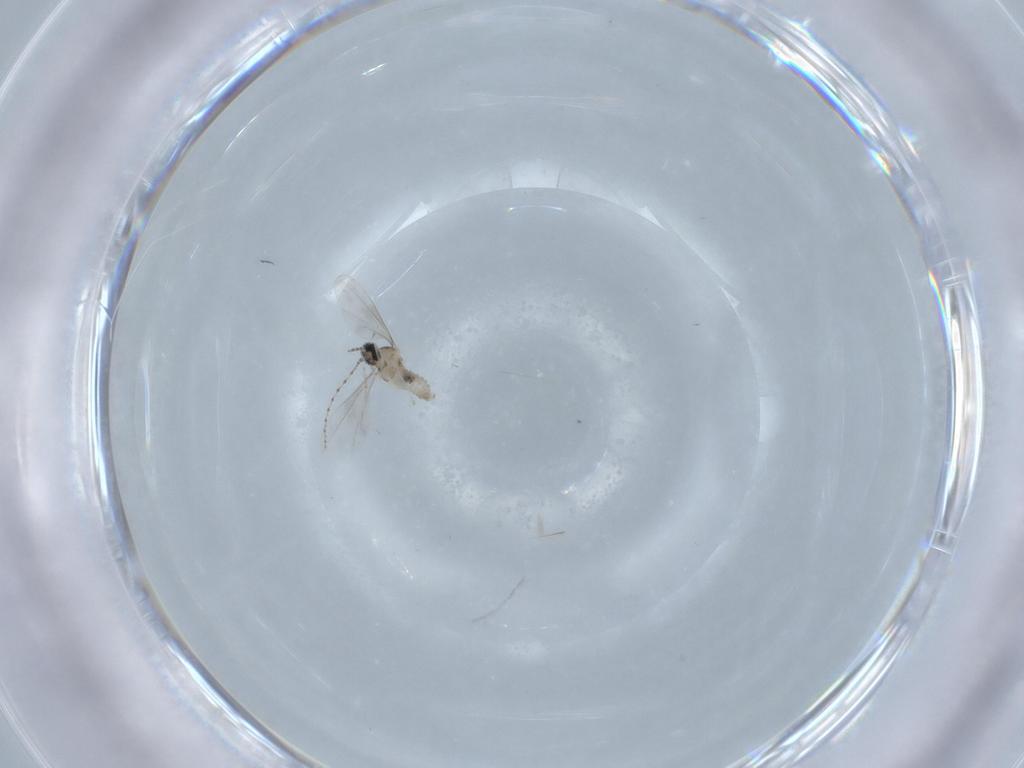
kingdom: Animalia
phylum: Arthropoda
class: Insecta
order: Diptera
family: Cecidomyiidae
